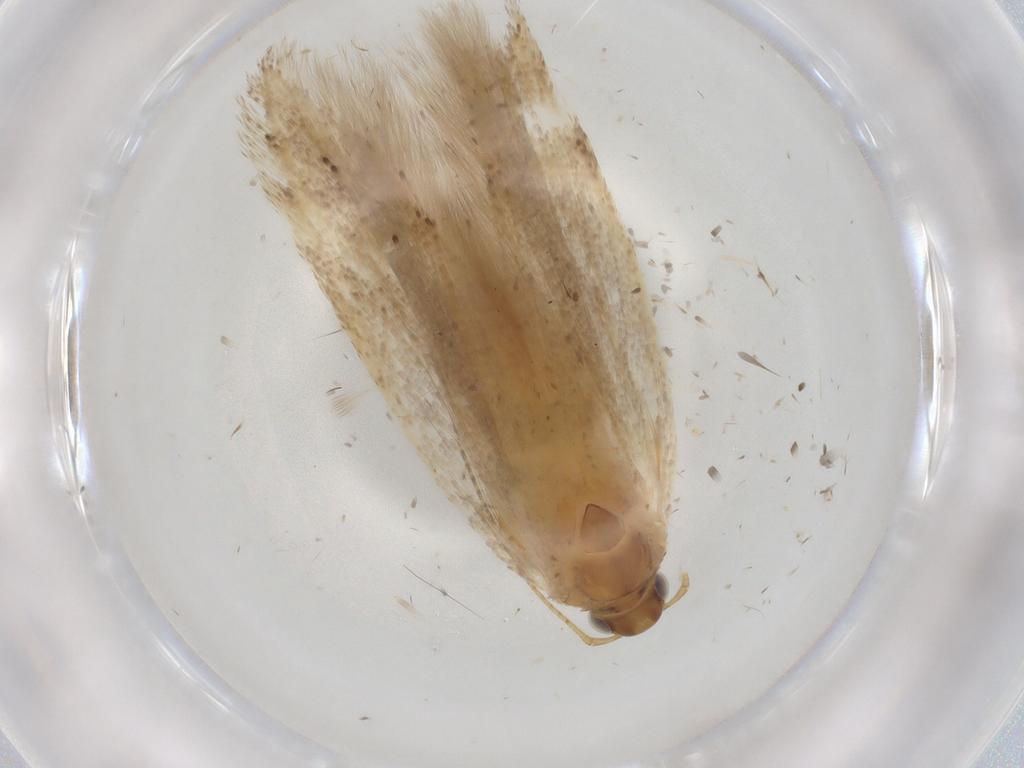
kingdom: Animalia
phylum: Arthropoda
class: Insecta
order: Lepidoptera
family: Gelechiidae
